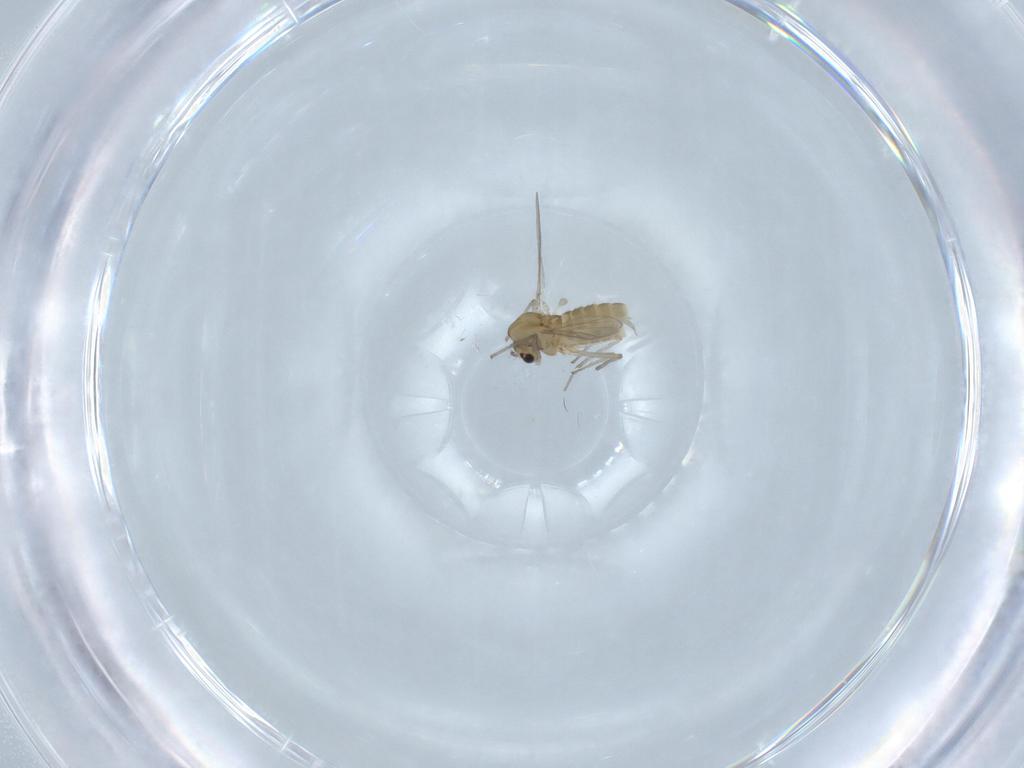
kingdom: Animalia
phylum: Arthropoda
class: Insecta
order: Diptera
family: Chironomidae
